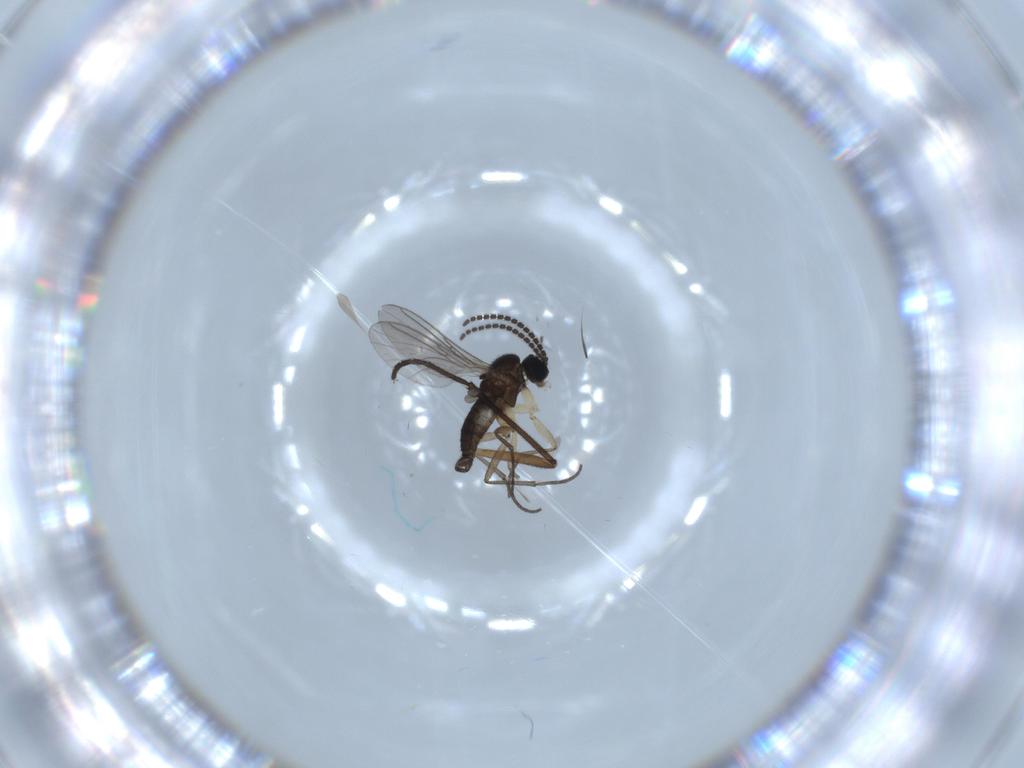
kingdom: Animalia
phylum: Arthropoda
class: Insecta
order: Diptera
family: Sciaridae
